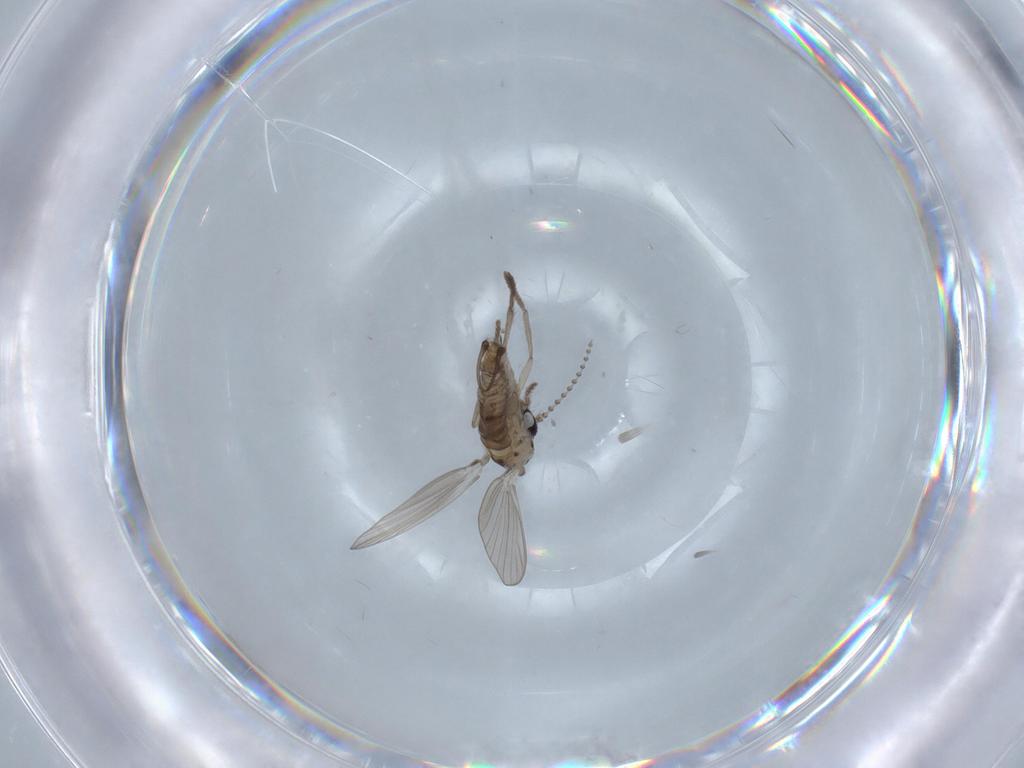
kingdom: Animalia
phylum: Arthropoda
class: Insecta
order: Diptera
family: Psychodidae
